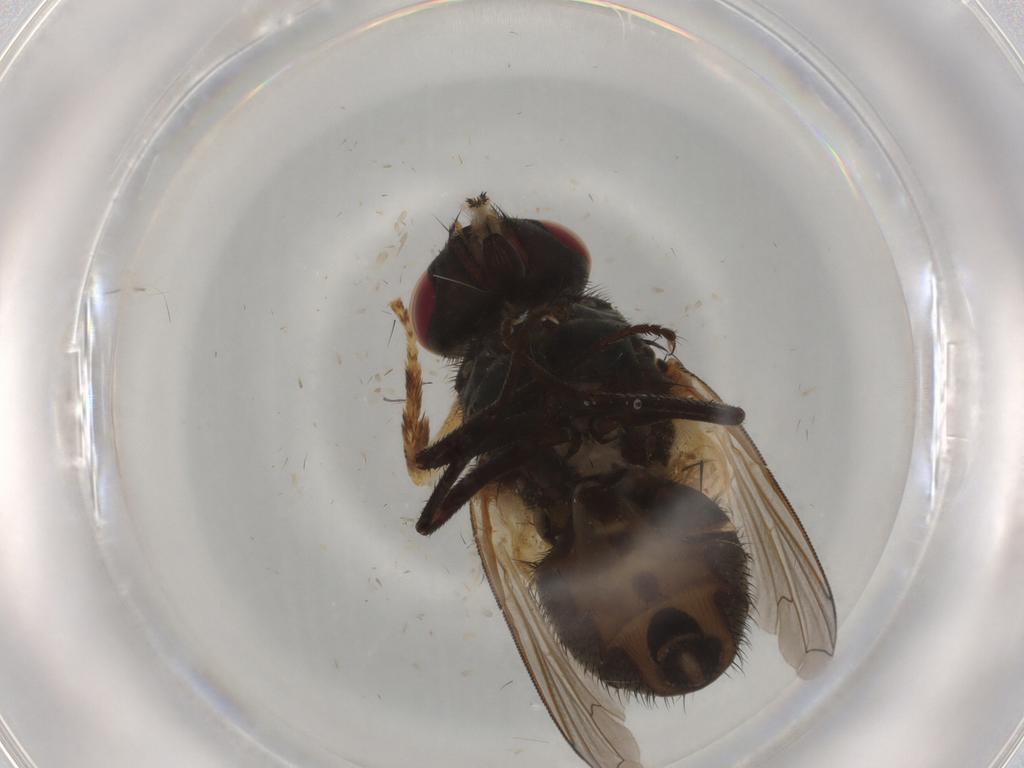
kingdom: Animalia
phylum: Arthropoda
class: Insecta
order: Diptera
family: Muscidae
